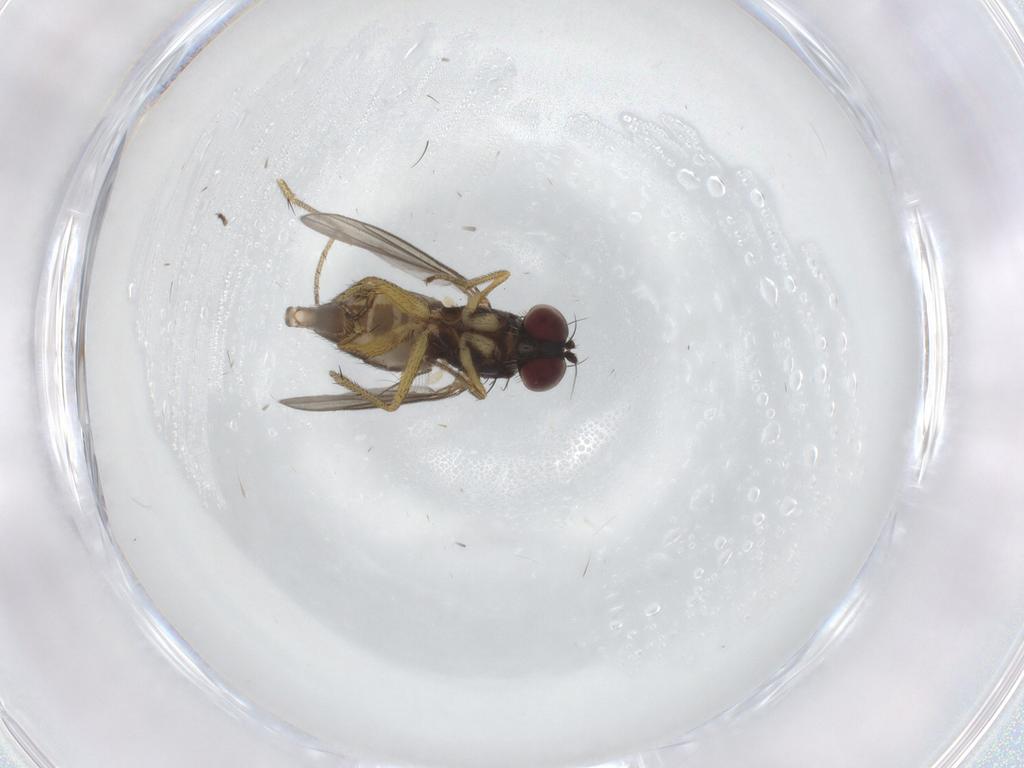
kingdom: Animalia
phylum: Arthropoda
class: Insecta
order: Diptera
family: Dolichopodidae
